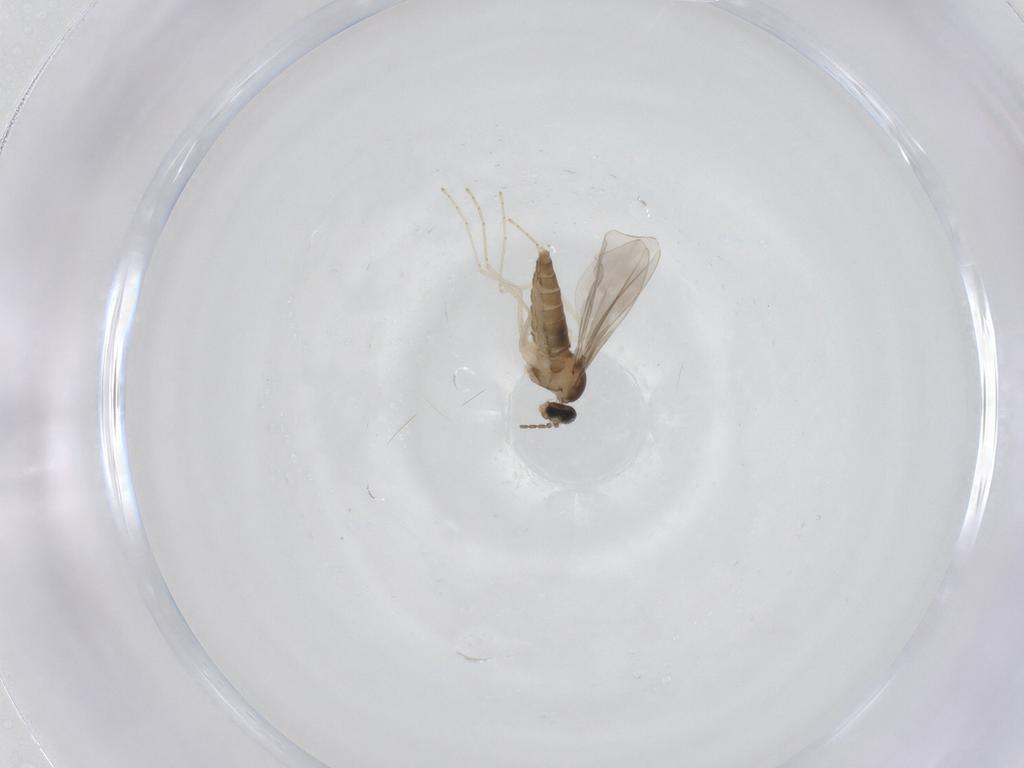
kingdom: Animalia
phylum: Arthropoda
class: Insecta
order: Diptera
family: Cecidomyiidae
